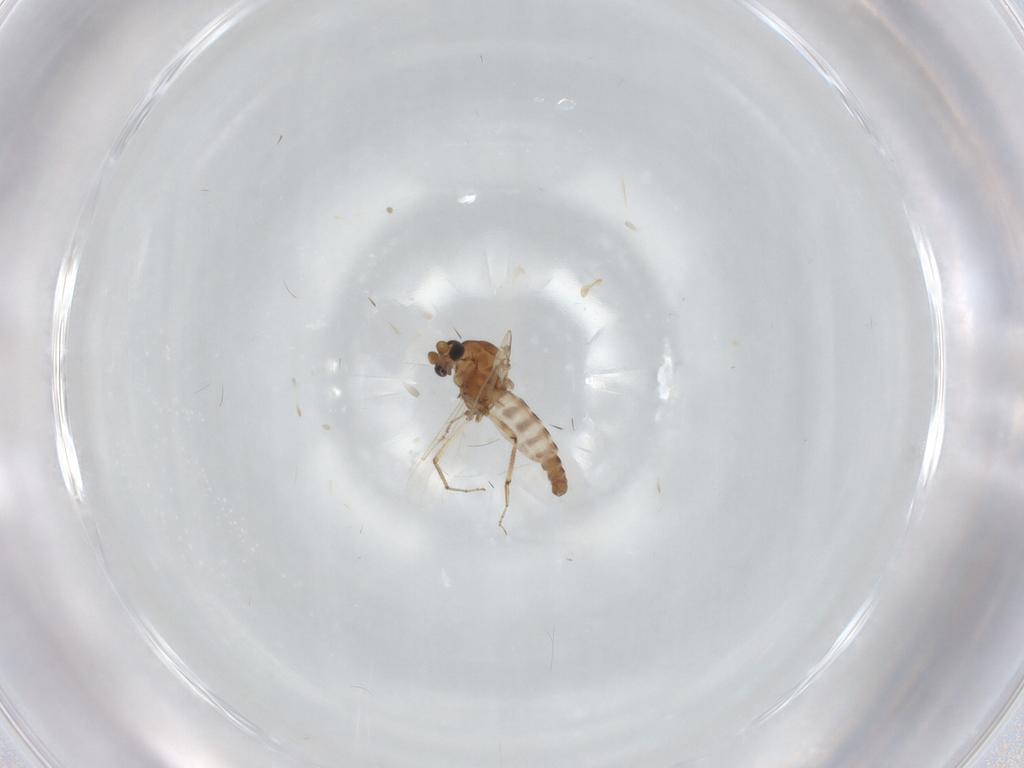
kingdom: Animalia
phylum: Arthropoda
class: Insecta
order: Diptera
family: Ceratopogonidae
